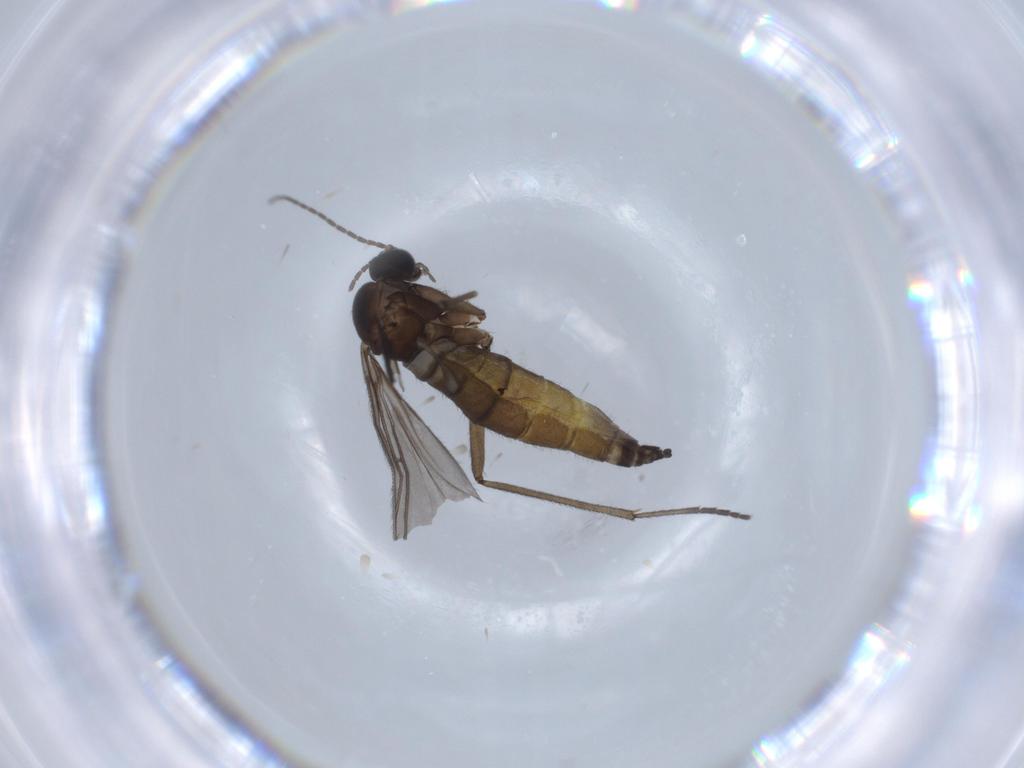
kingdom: Animalia
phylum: Arthropoda
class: Insecta
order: Diptera
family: Sciaridae
